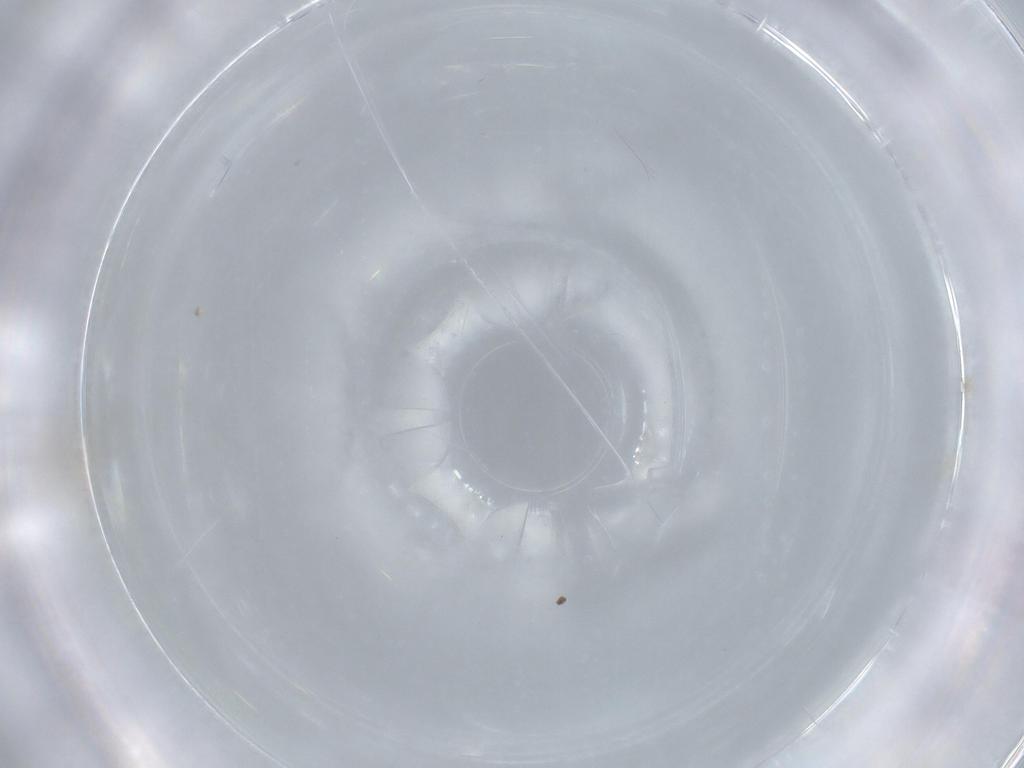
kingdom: Animalia
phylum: Arthropoda
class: Insecta
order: Diptera
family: Cecidomyiidae
